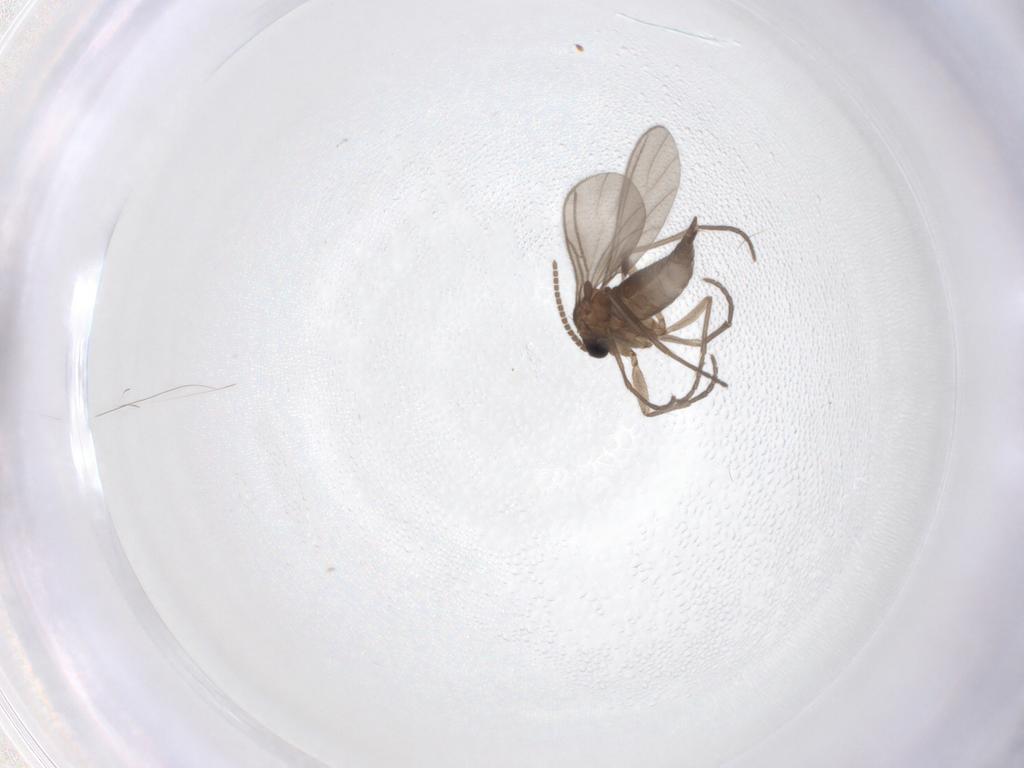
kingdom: Animalia
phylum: Arthropoda
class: Insecta
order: Diptera
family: Sciaridae
